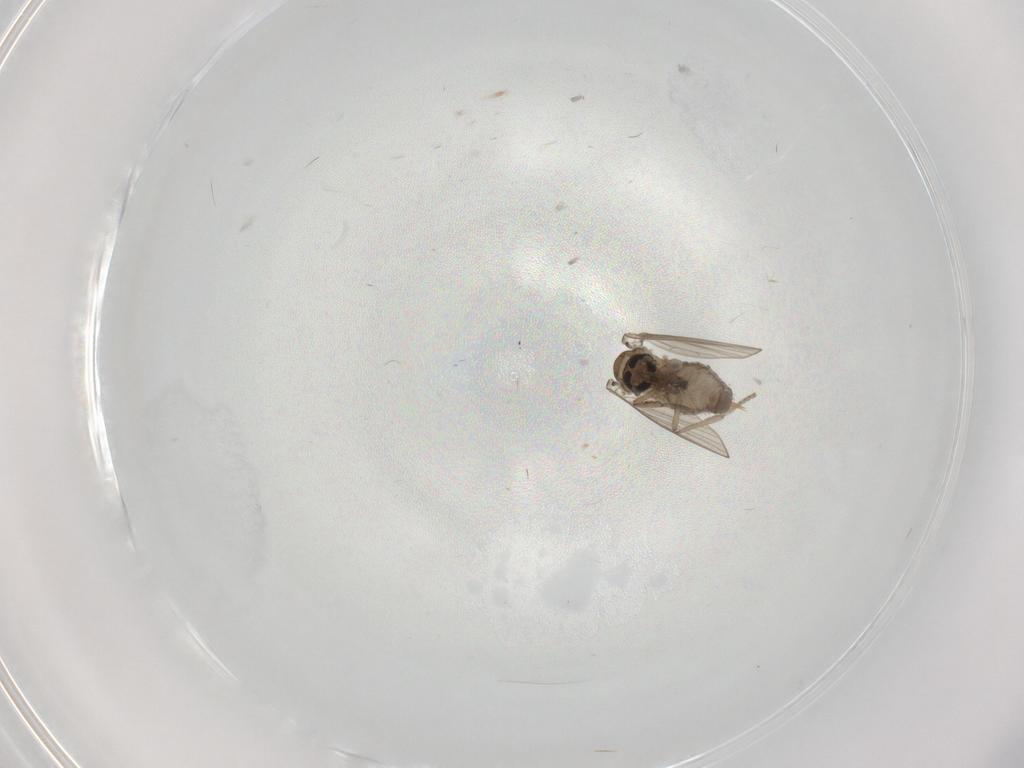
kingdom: Animalia
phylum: Arthropoda
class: Insecta
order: Diptera
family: Psychodidae
